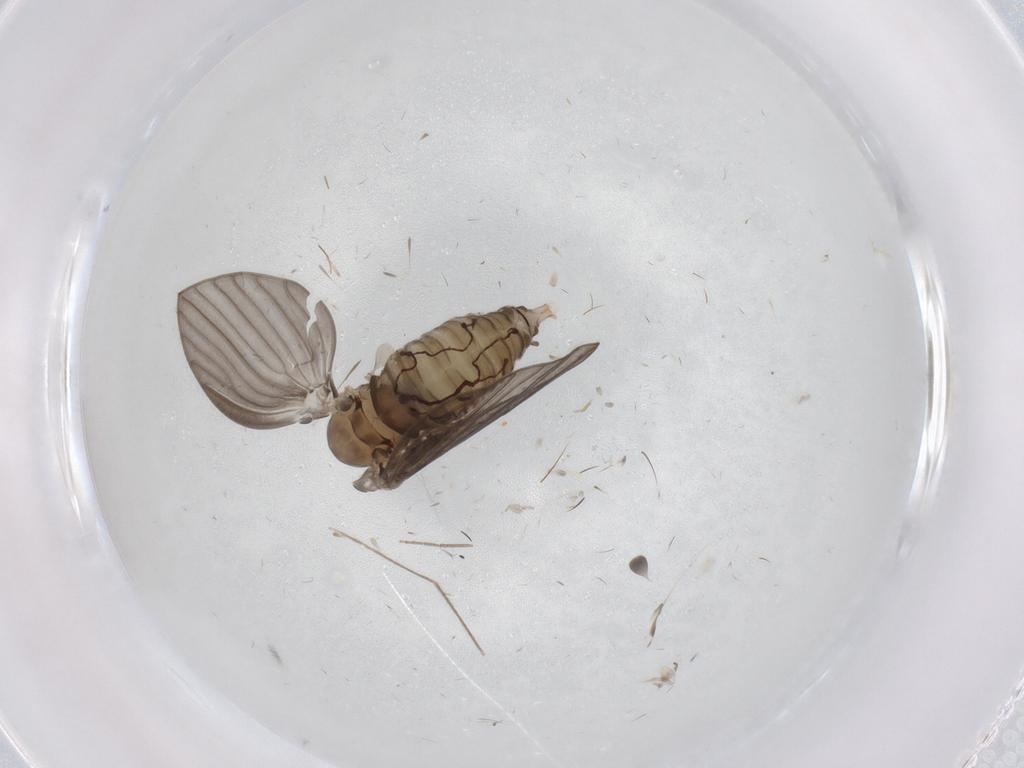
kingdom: Animalia
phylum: Arthropoda
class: Insecta
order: Diptera
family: Psychodidae
